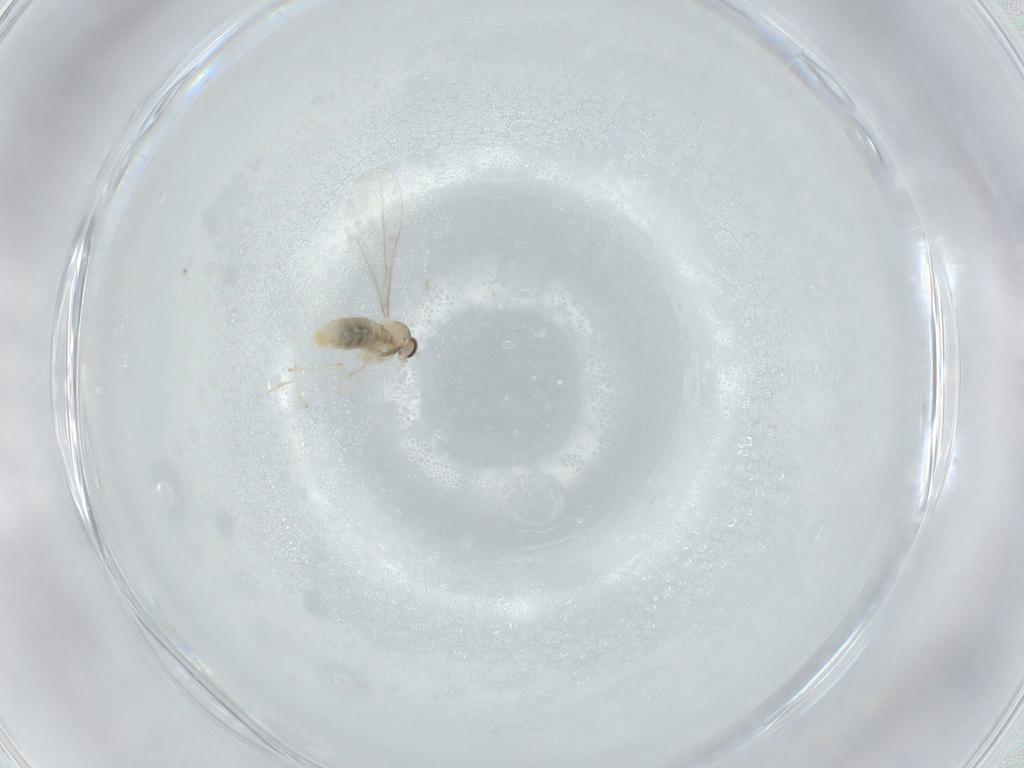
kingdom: Animalia
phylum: Arthropoda
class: Insecta
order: Diptera
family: Cecidomyiidae
